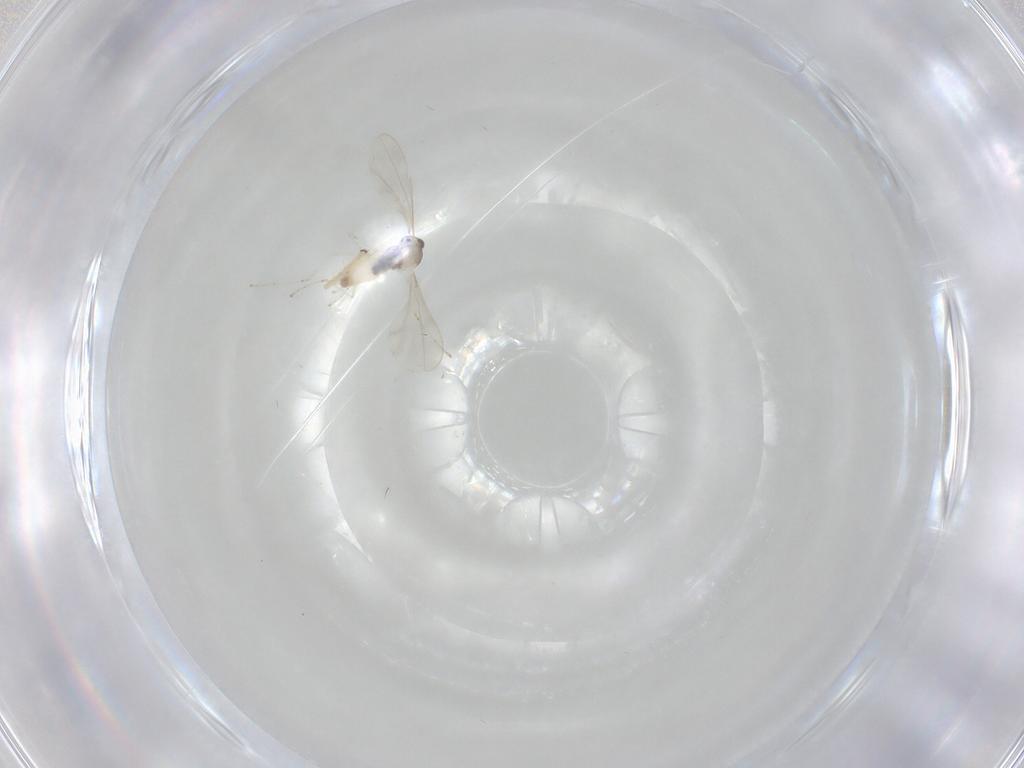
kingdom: Animalia
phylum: Arthropoda
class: Insecta
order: Diptera
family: Cecidomyiidae
